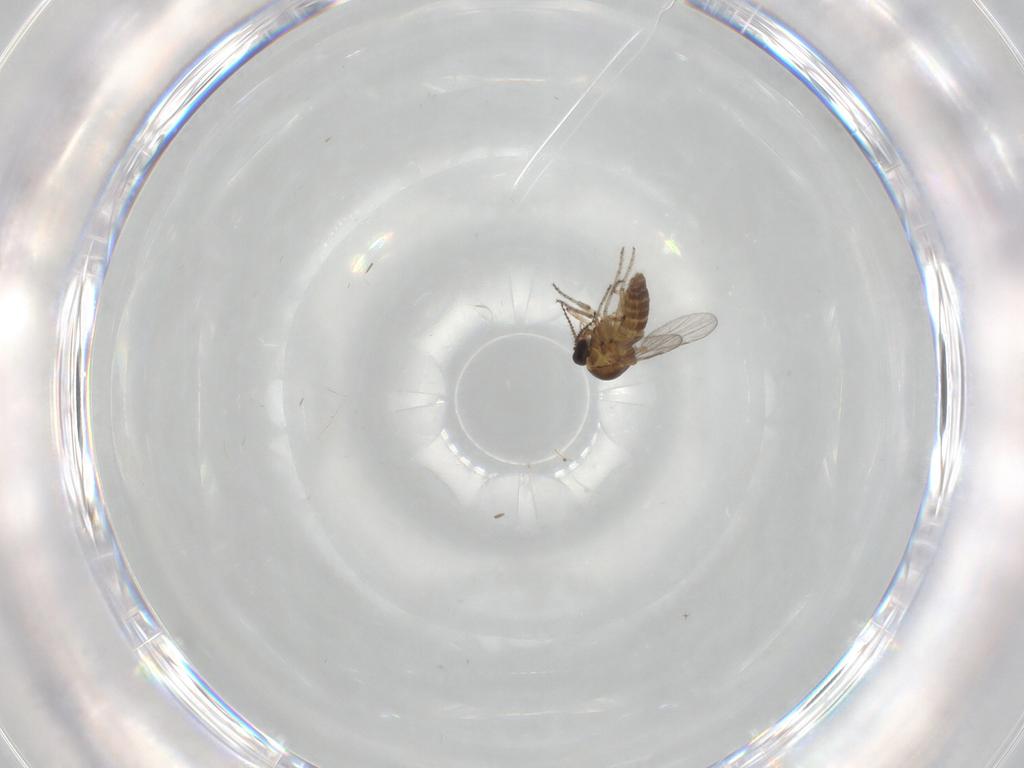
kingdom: Animalia
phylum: Arthropoda
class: Insecta
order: Diptera
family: Ceratopogonidae
